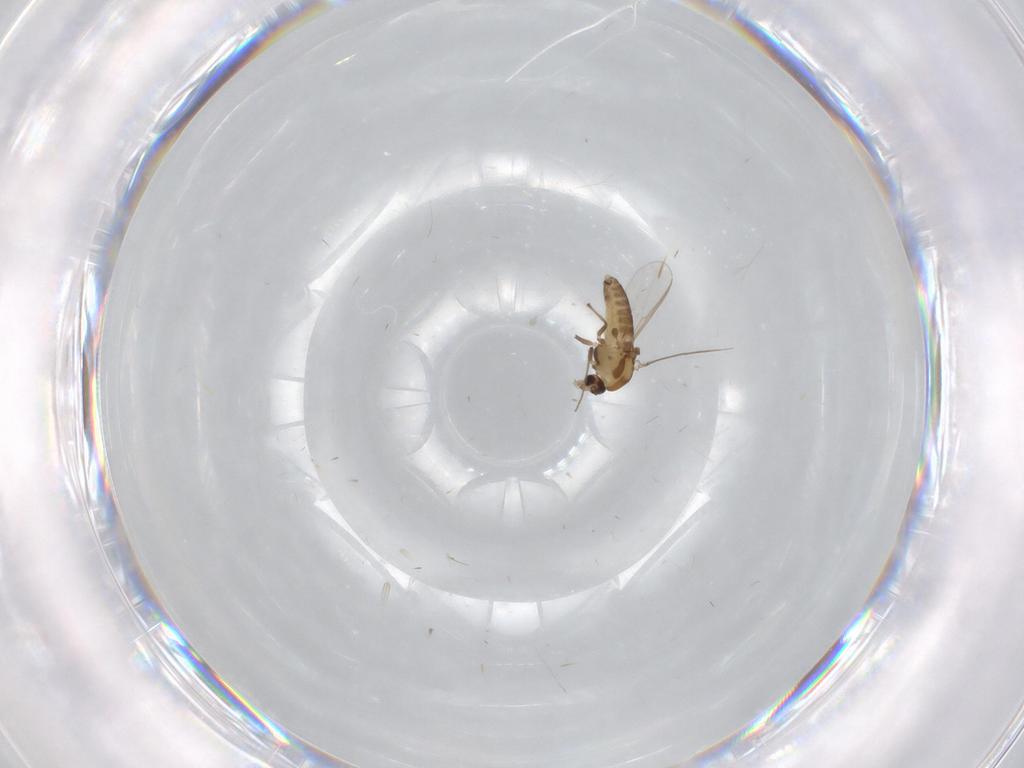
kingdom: Animalia
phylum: Arthropoda
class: Insecta
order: Diptera
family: Chironomidae
